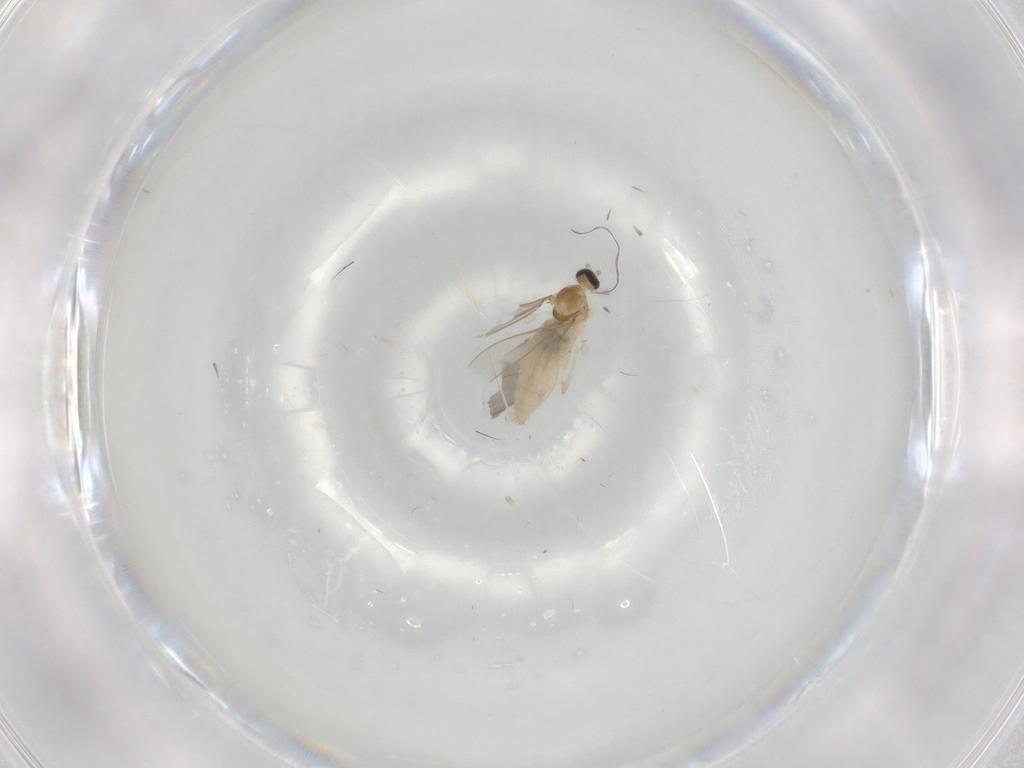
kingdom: Animalia
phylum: Arthropoda
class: Insecta
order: Diptera
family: Cecidomyiidae
